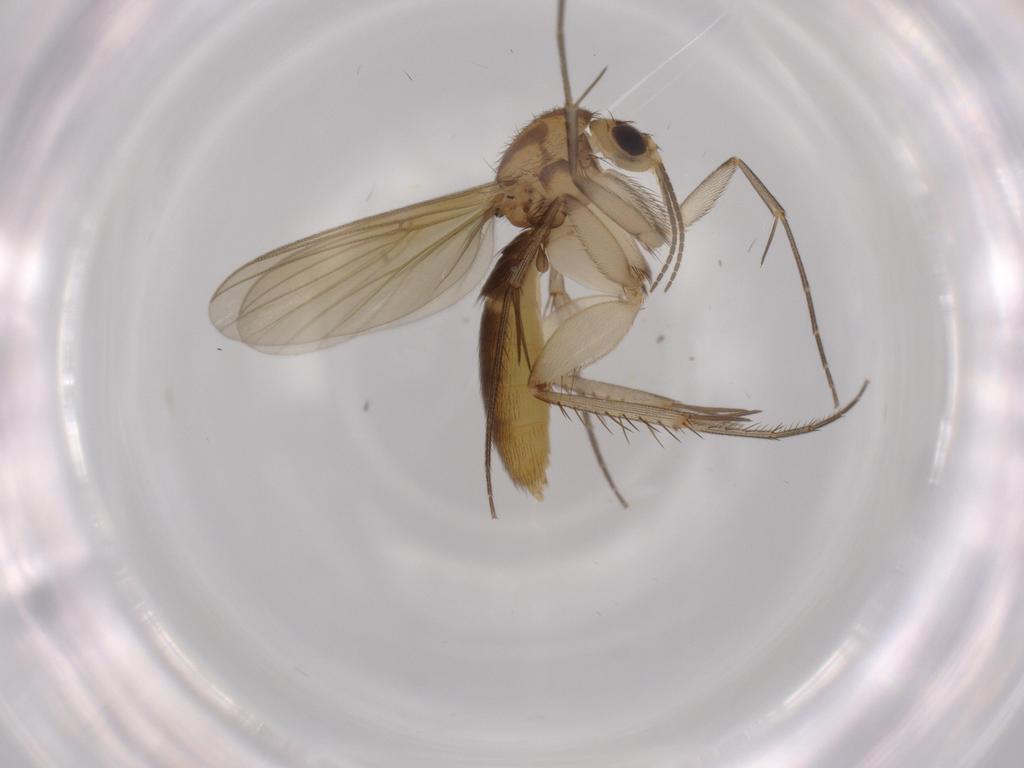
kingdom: Animalia
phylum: Arthropoda
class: Insecta
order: Diptera
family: Mycetophilidae
